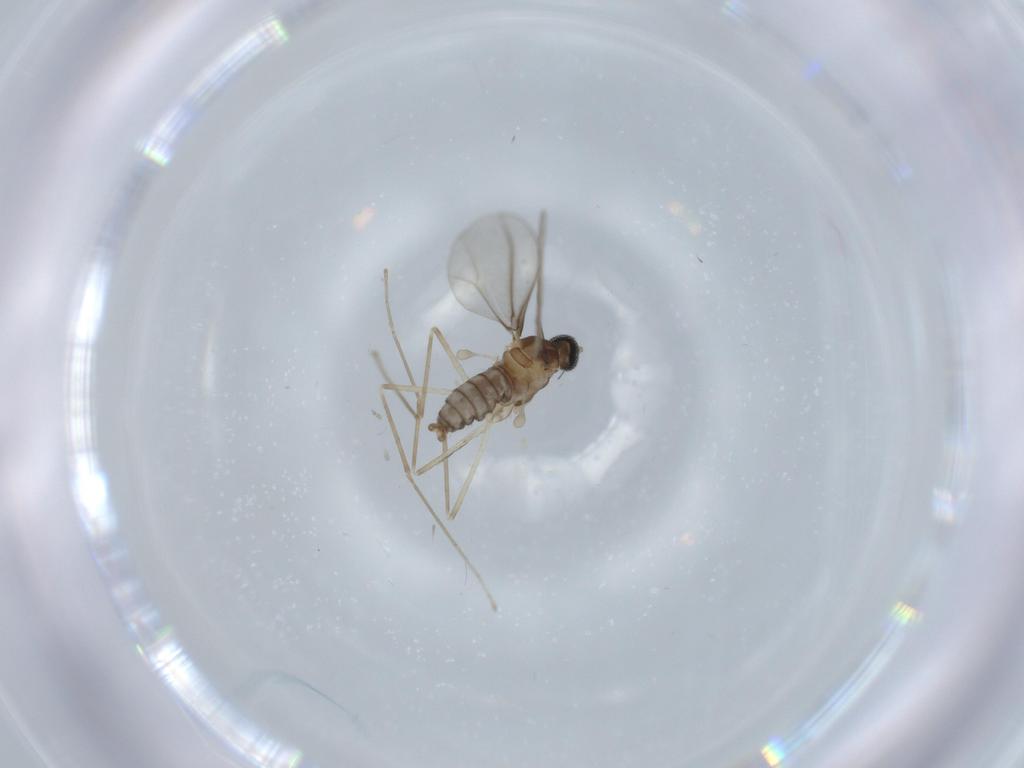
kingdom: Animalia
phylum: Arthropoda
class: Insecta
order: Diptera
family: Cecidomyiidae
